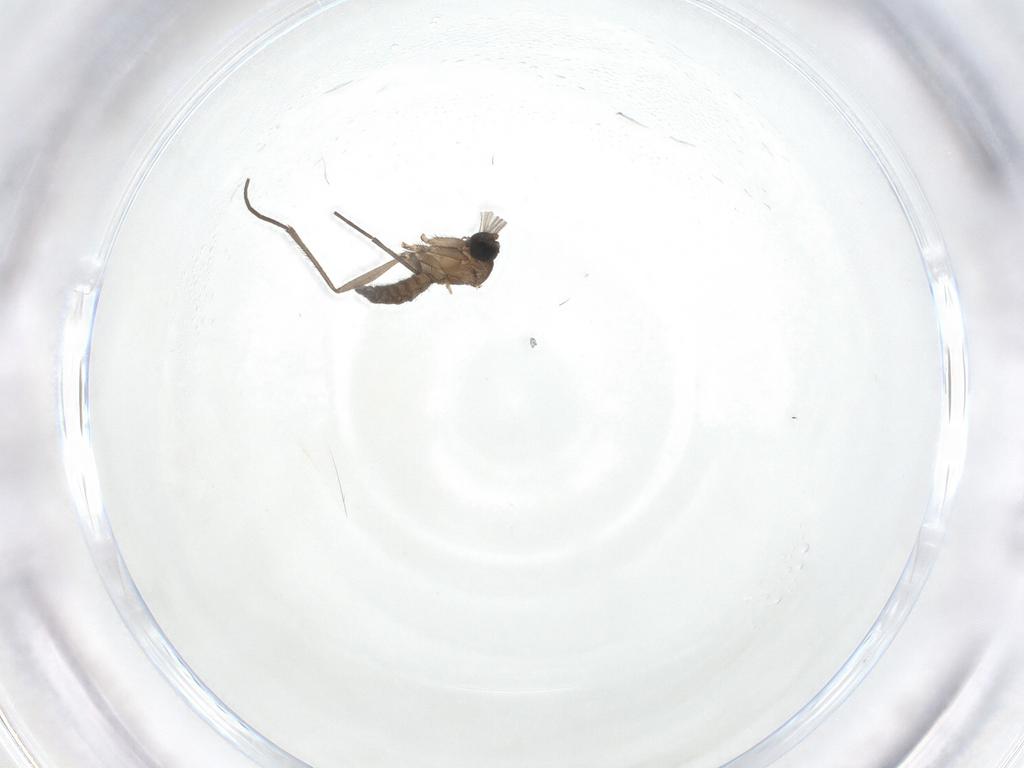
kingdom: Animalia
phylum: Arthropoda
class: Insecta
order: Diptera
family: Sciaridae
